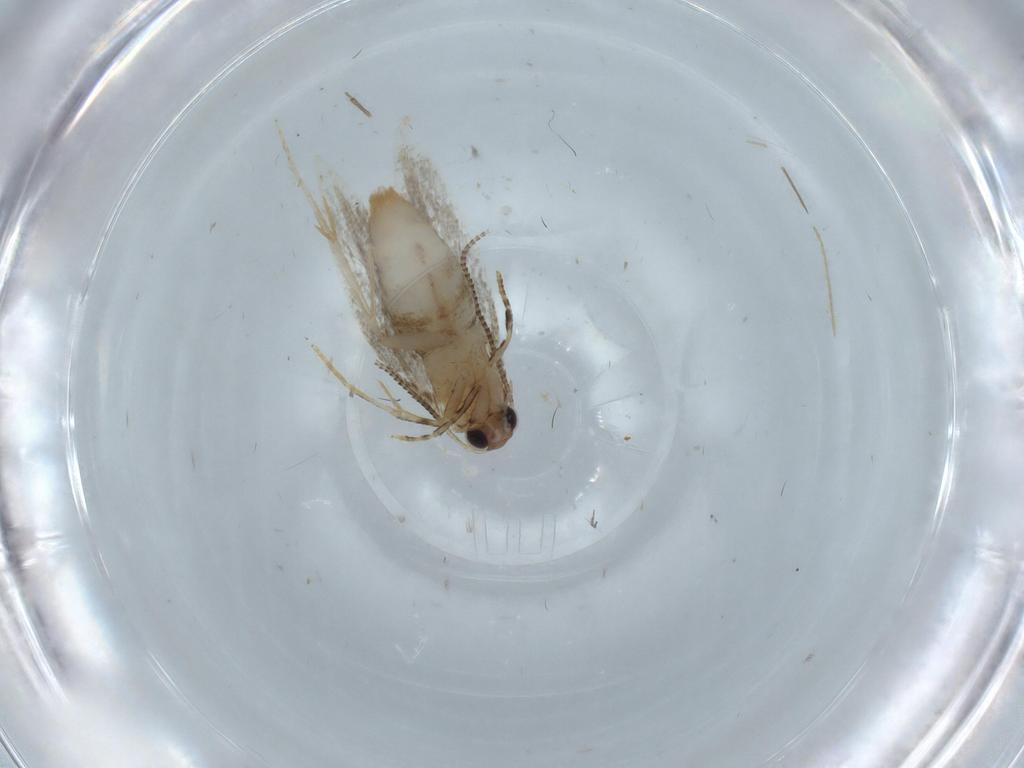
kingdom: Animalia
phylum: Arthropoda
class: Insecta
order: Lepidoptera
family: Tineidae
